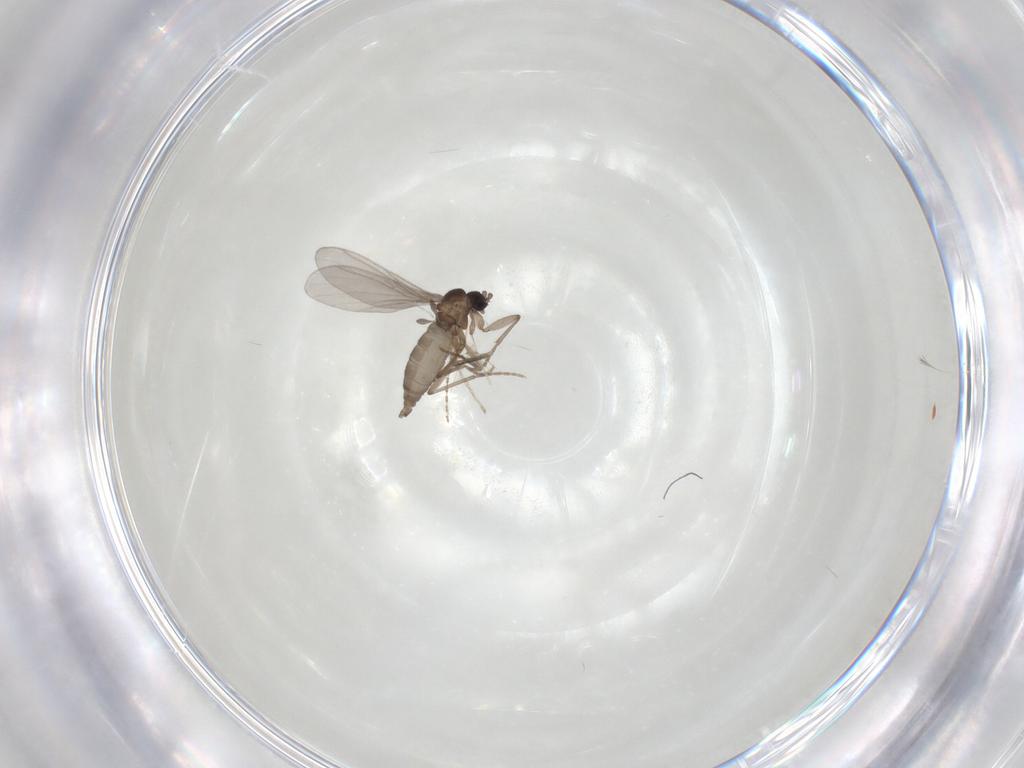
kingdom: Animalia
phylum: Arthropoda
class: Insecta
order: Diptera
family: Cecidomyiidae
